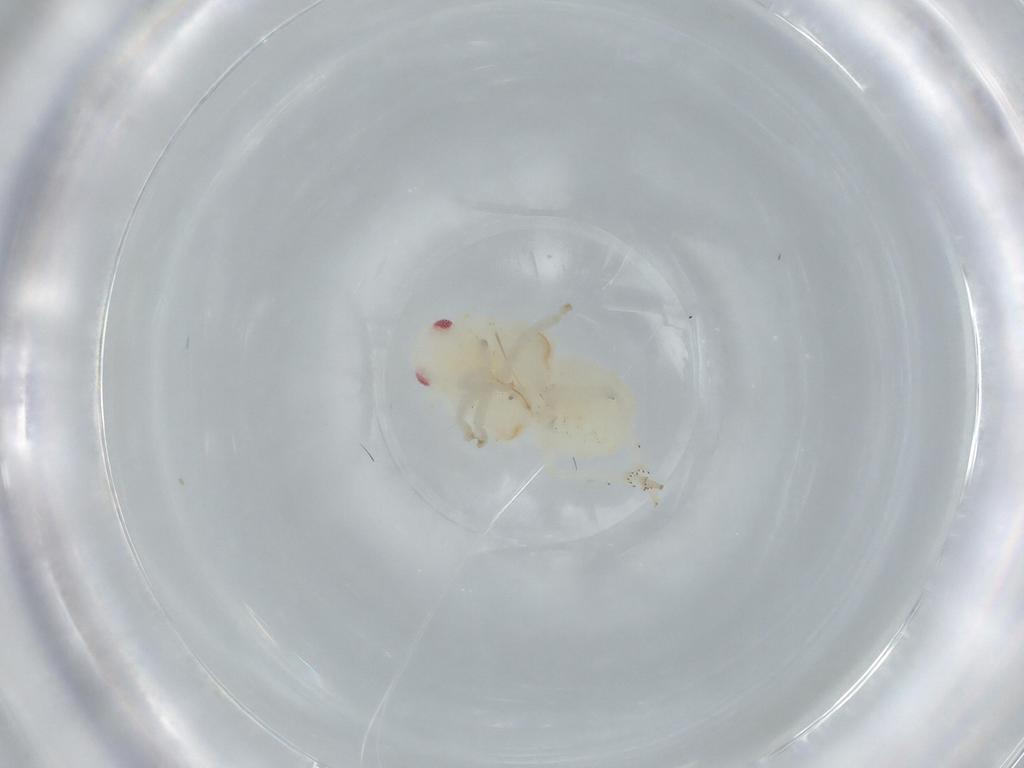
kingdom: Animalia
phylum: Arthropoda
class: Insecta
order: Hemiptera
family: Flatidae
